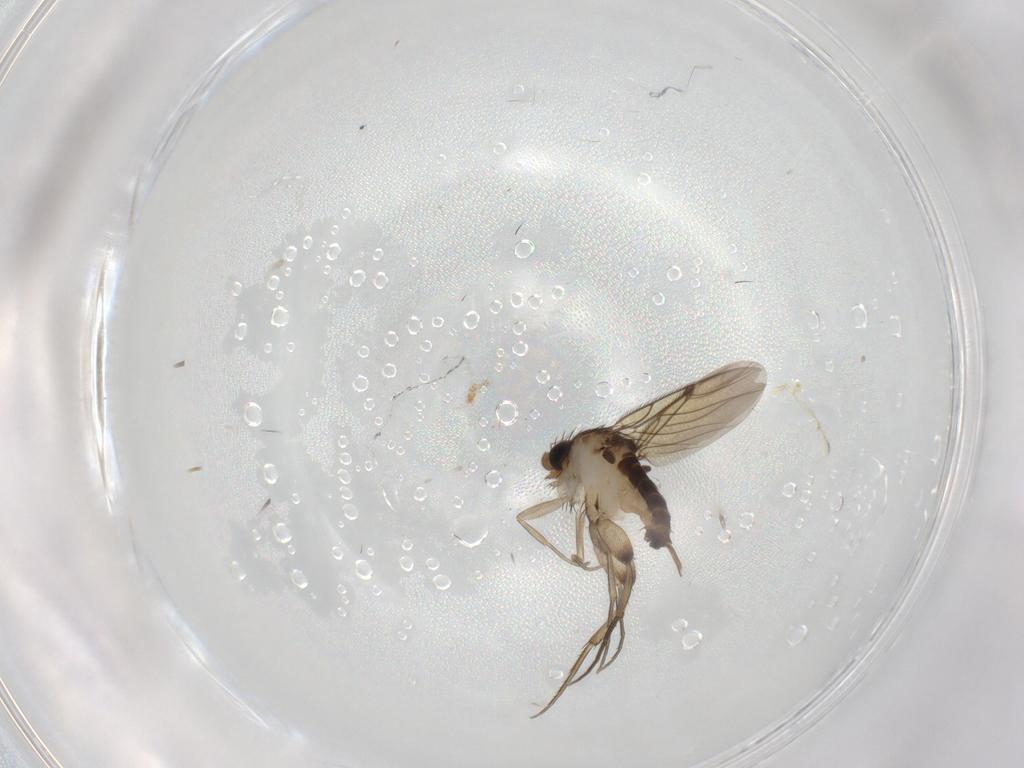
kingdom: Animalia
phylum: Arthropoda
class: Insecta
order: Diptera
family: Phoridae
